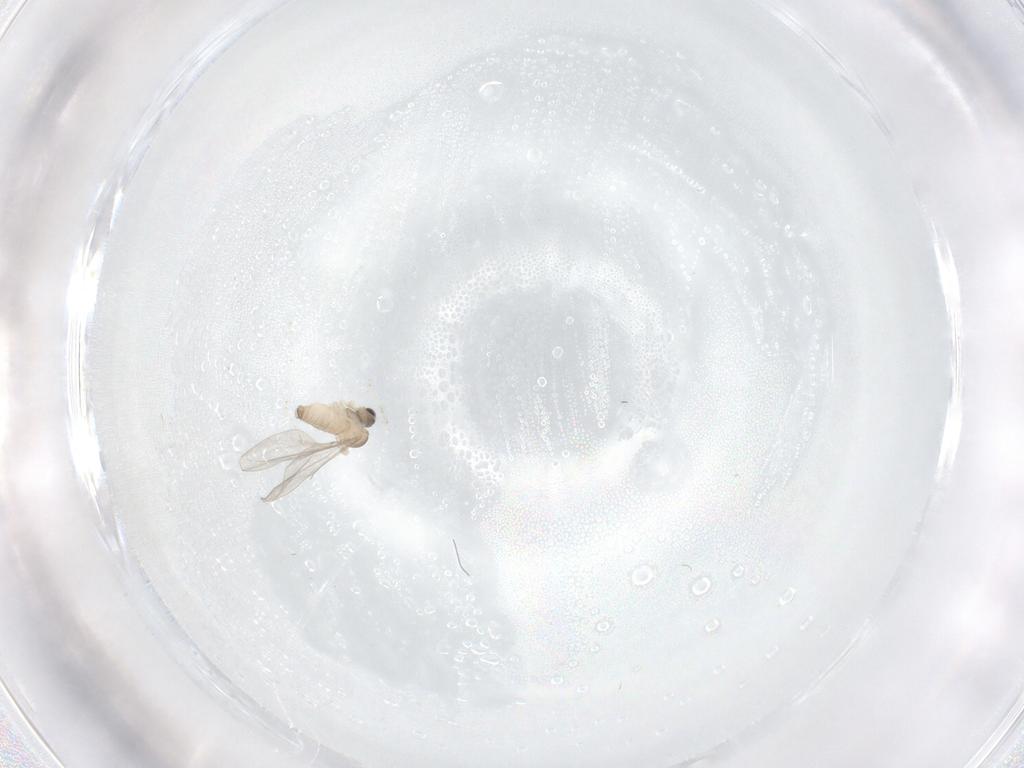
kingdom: Animalia
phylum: Arthropoda
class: Insecta
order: Diptera
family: Cecidomyiidae
